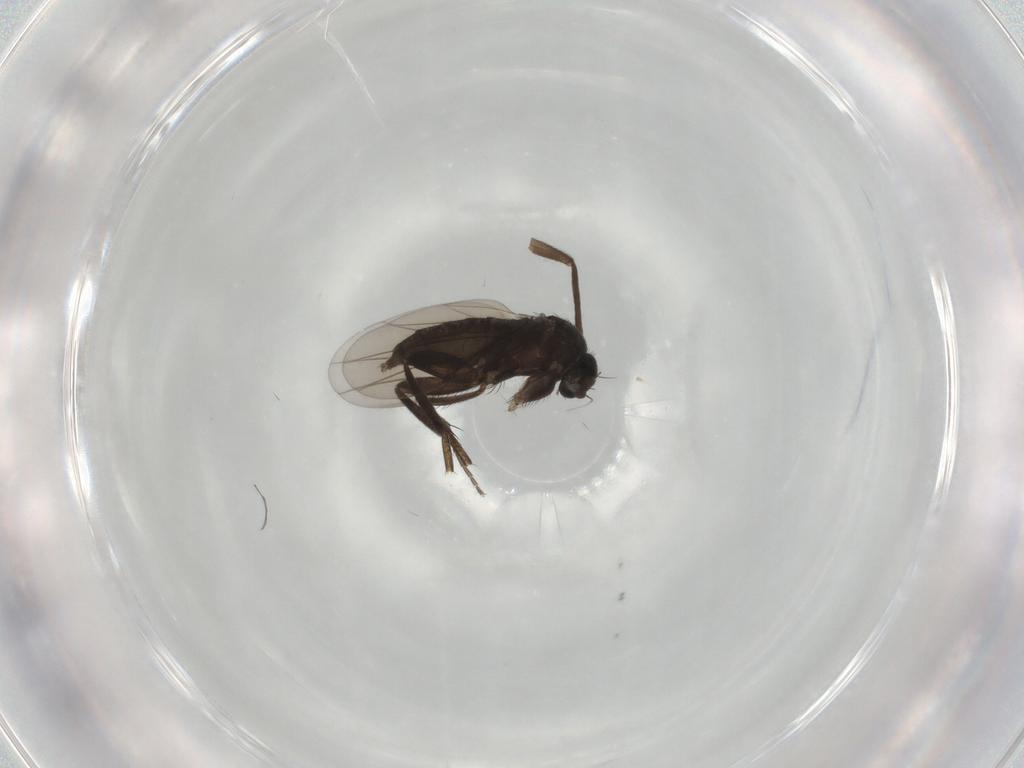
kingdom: Animalia
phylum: Arthropoda
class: Insecta
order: Diptera
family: Phoridae
